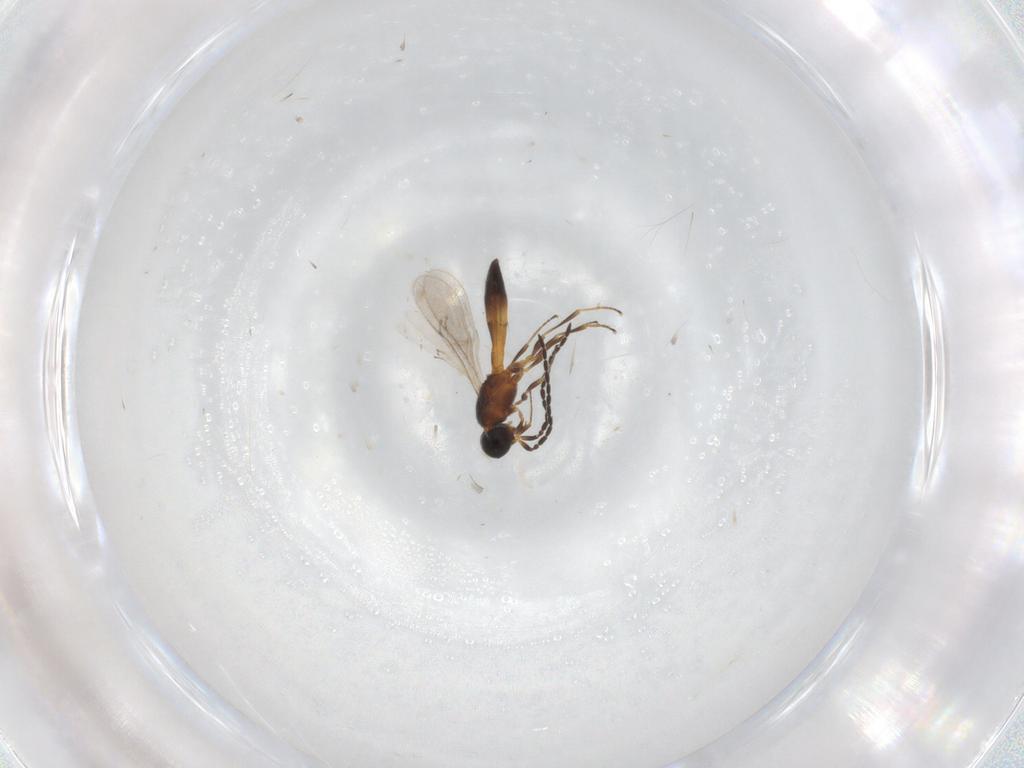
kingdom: Animalia
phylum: Arthropoda
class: Insecta
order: Hymenoptera
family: Scelionidae
